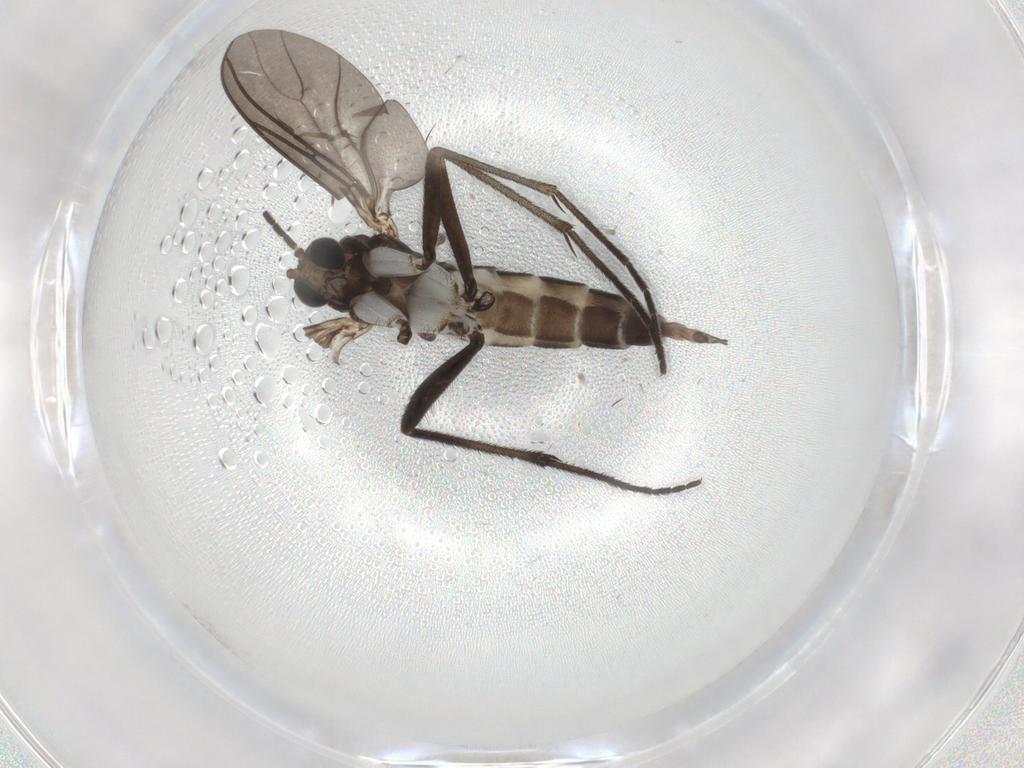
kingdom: Animalia
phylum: Arthropoda
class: Insecta
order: Diptera
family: Sciaridae
